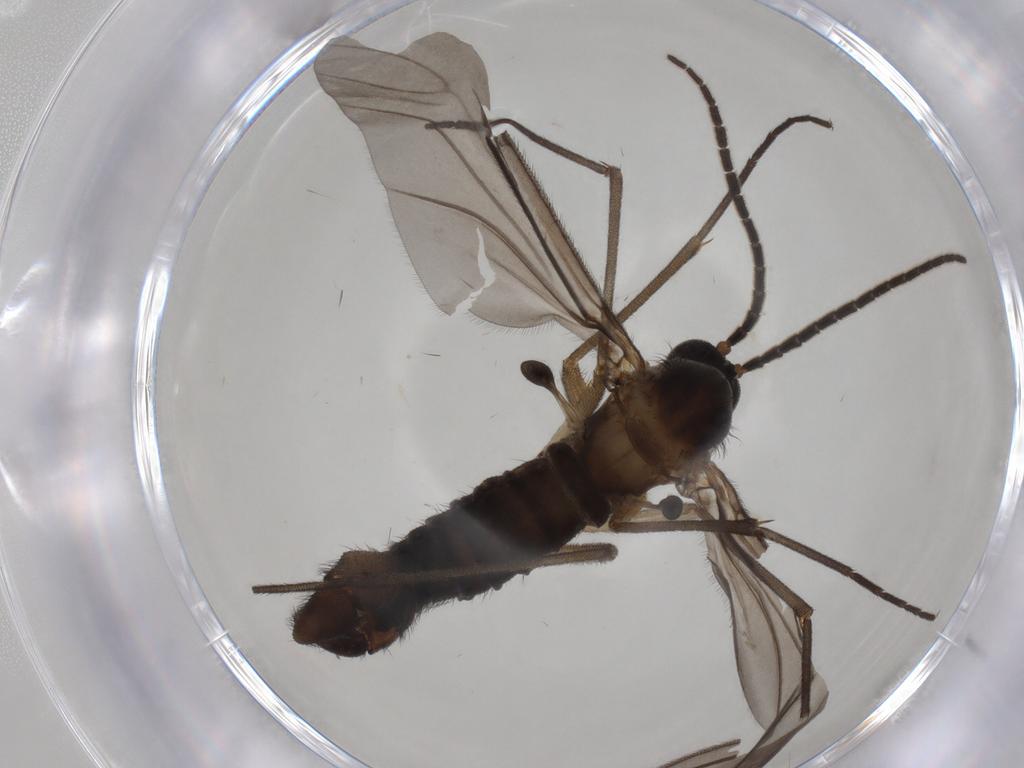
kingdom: Animalia
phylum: Arthropoda
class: Insecta
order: Diptera
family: Sciaridae
